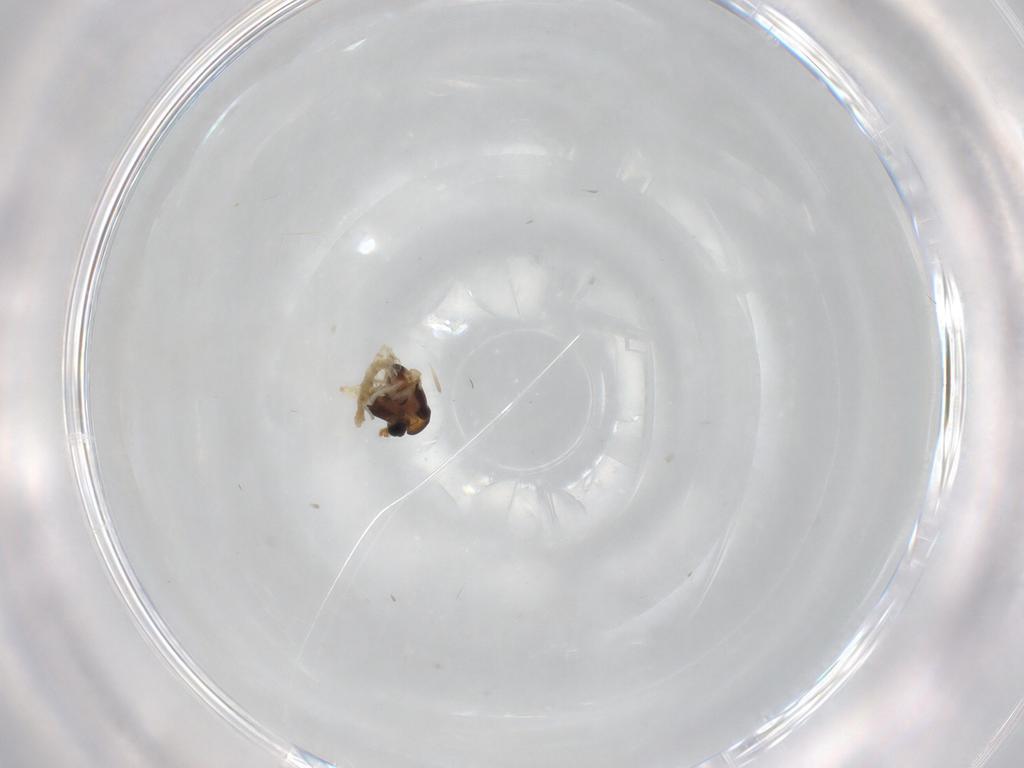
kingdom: Animalia
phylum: Arthropoda
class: Insecta
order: Diptera
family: Chironomidae
